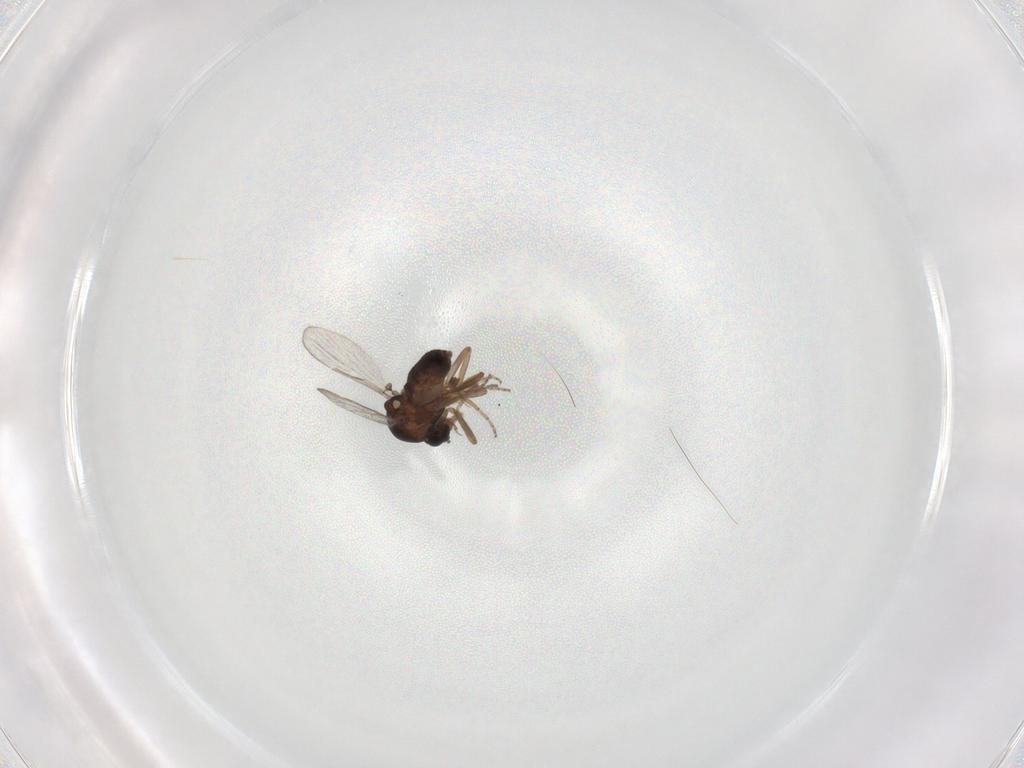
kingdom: Animalia
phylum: Arthropoda
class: Insecta
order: Diptera
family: Ceratopogonidae
